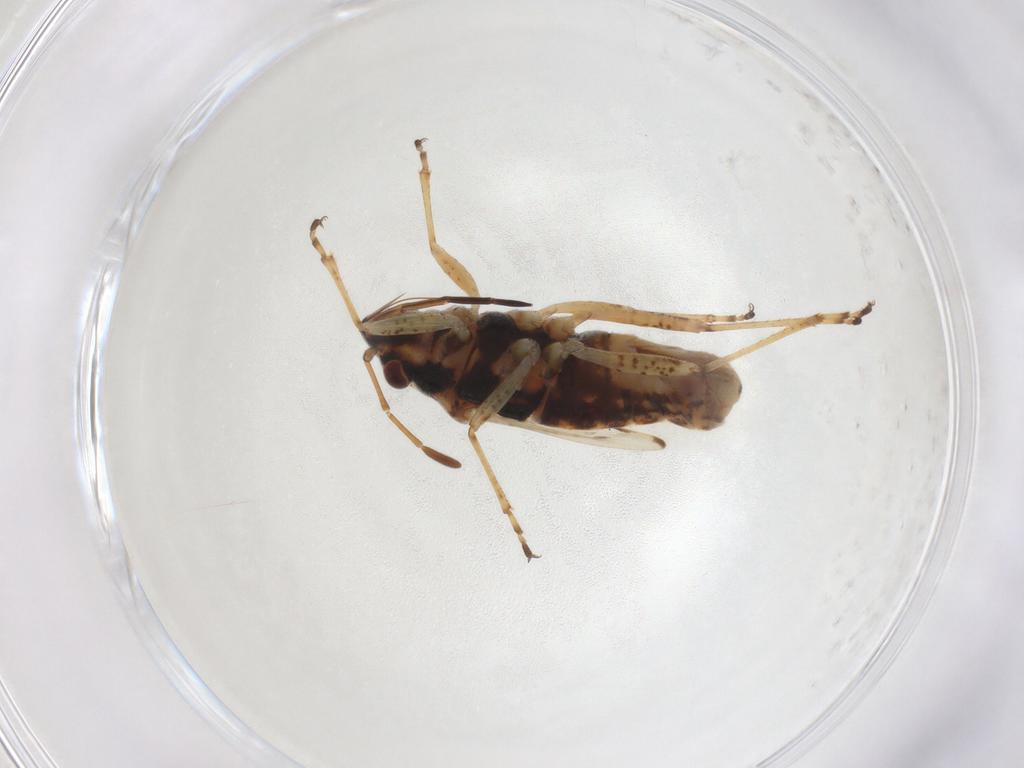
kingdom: Animalia
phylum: Arthropoda
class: Insecta
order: Hemiptera
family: Lygaeidae
